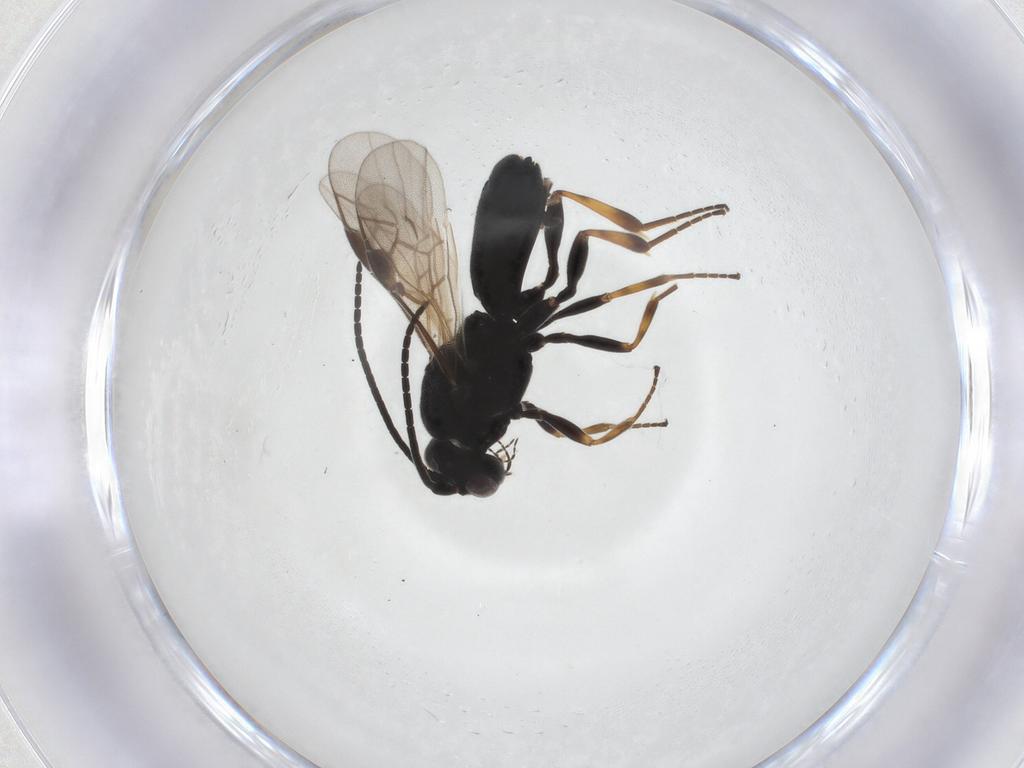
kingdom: Animalia
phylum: Arthropoda
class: Insecta
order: Hymenoptera
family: Braconidae
